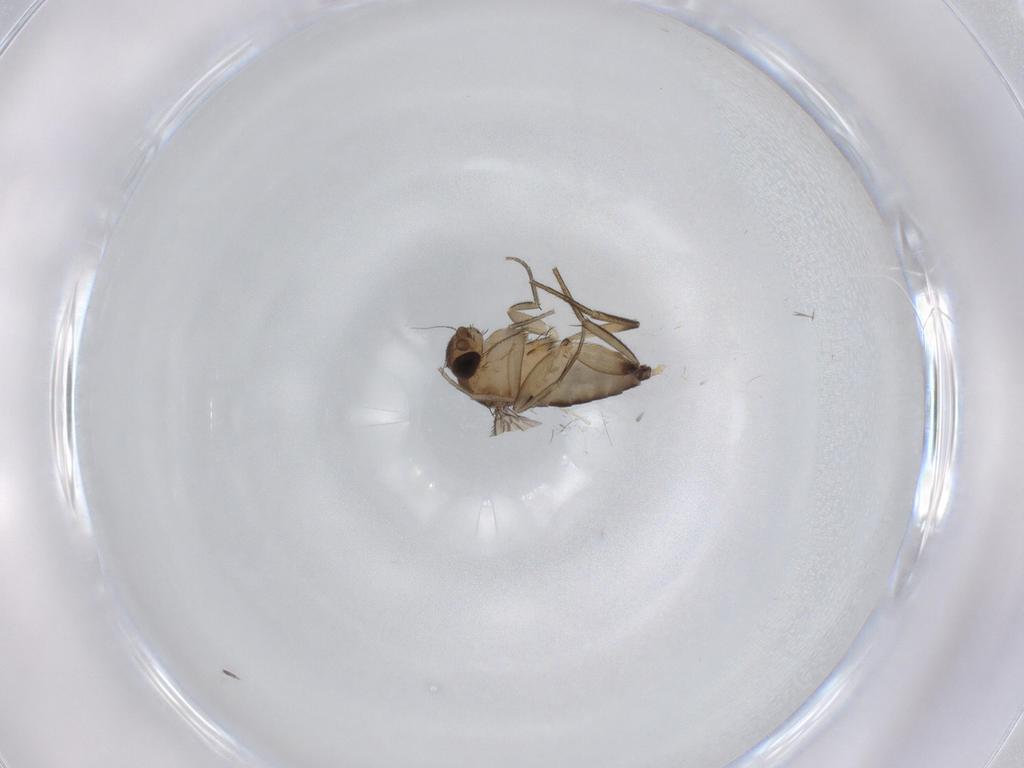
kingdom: Animalia
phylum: Arthropoda
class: Insecta
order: Diptera
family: Phoridae
